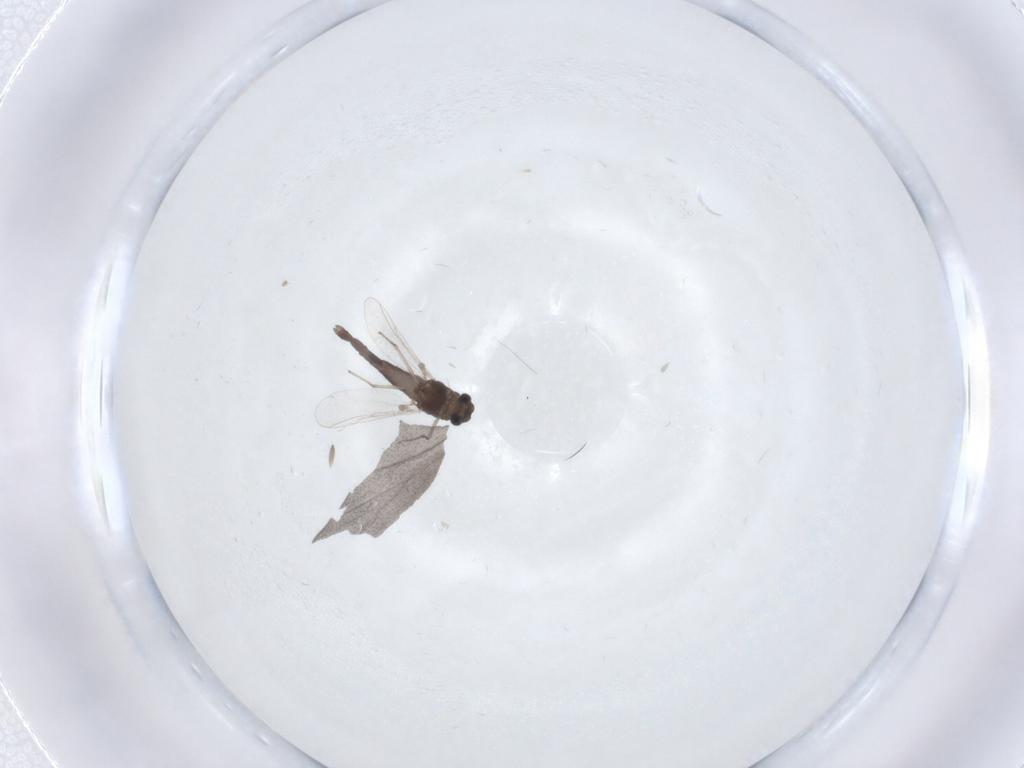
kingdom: Animalia
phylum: Arthropoda
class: Insecta
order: Diptera
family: Chironomidae
